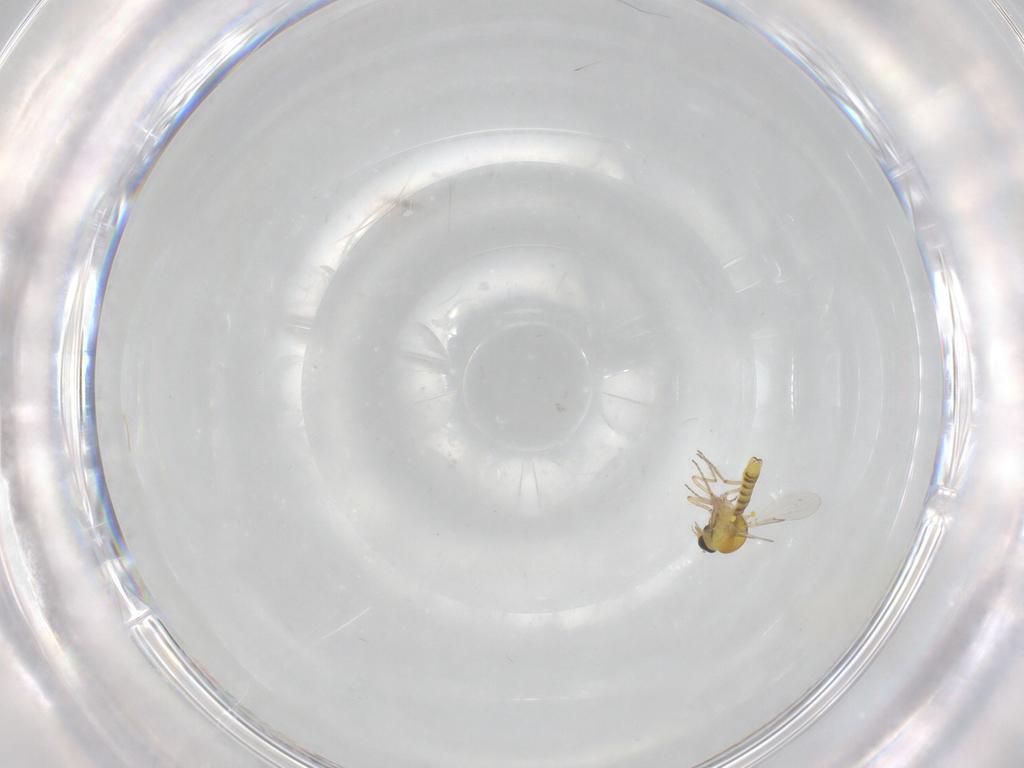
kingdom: Animalia
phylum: Arthropoda
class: Insecta
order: Diptera
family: Ceratopogonidae
